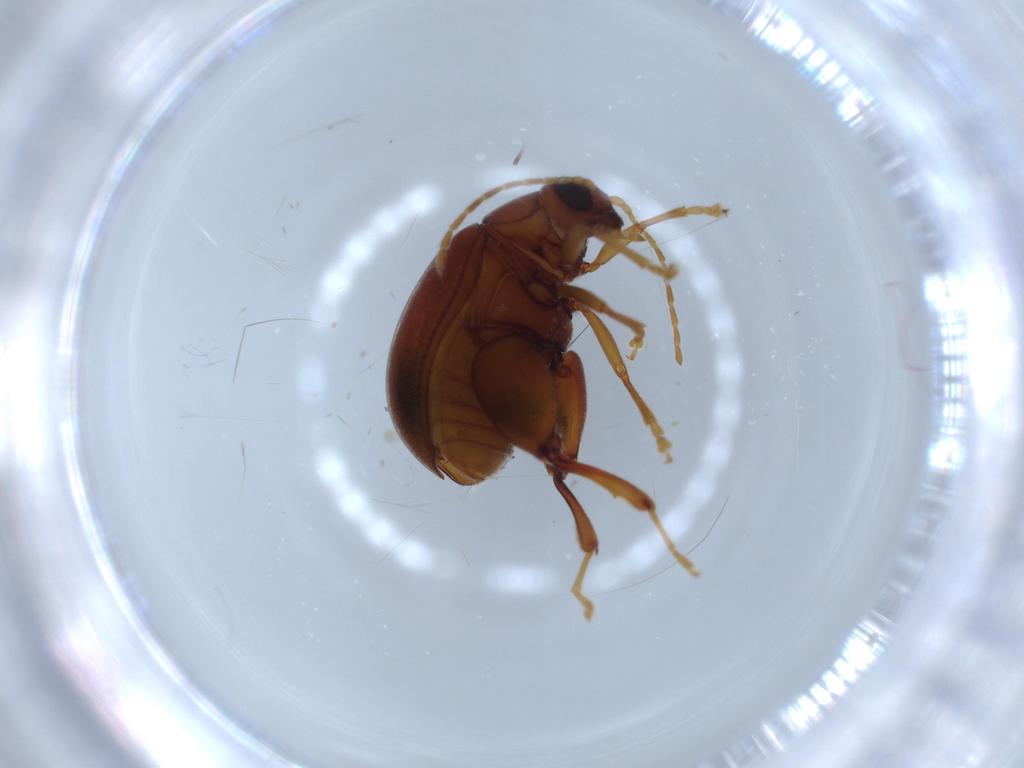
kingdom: Animalia
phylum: Arthropoda
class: Insecta
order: Coleoptera
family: Chrysomelidae
